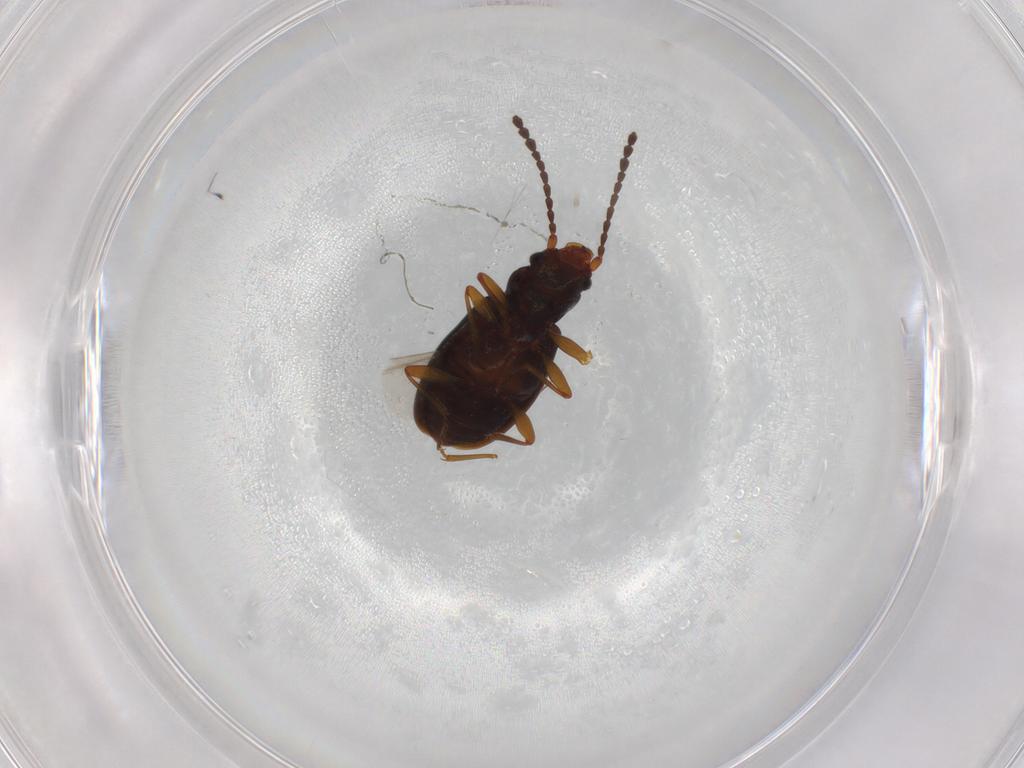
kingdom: Animalia
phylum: Arthropoda
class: Insecta
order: Coleoptera
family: Laemophloeidae
